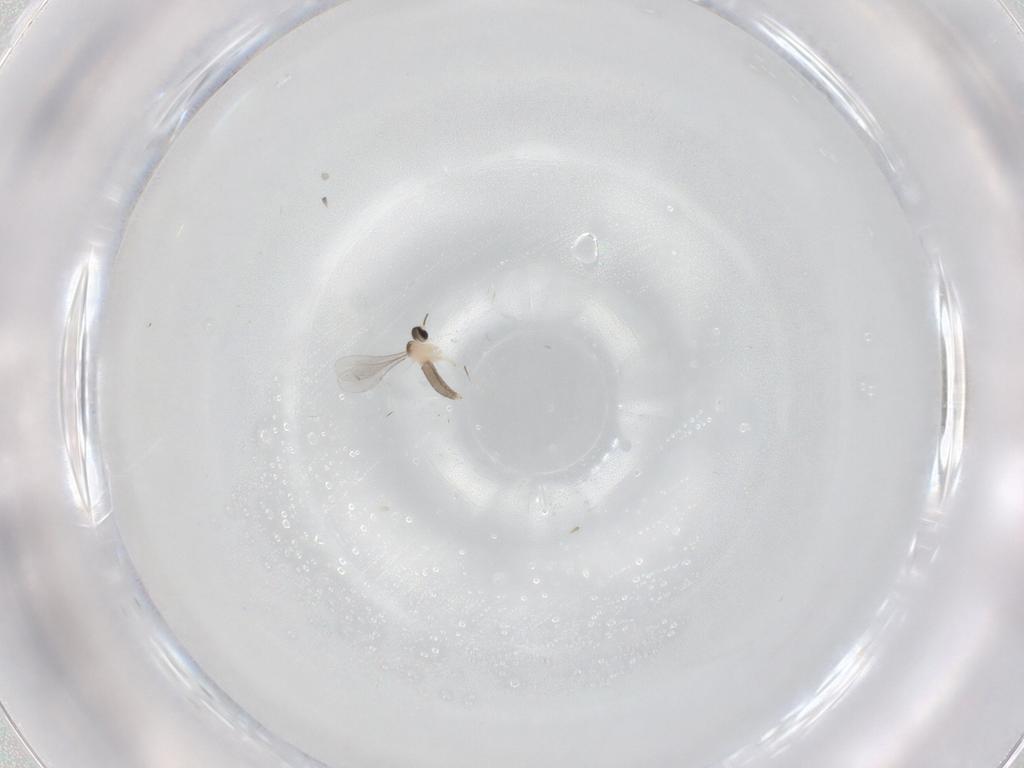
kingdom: Animalia
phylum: Arthropoda
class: Insecta
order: Diptera
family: Cecidomyiidae
